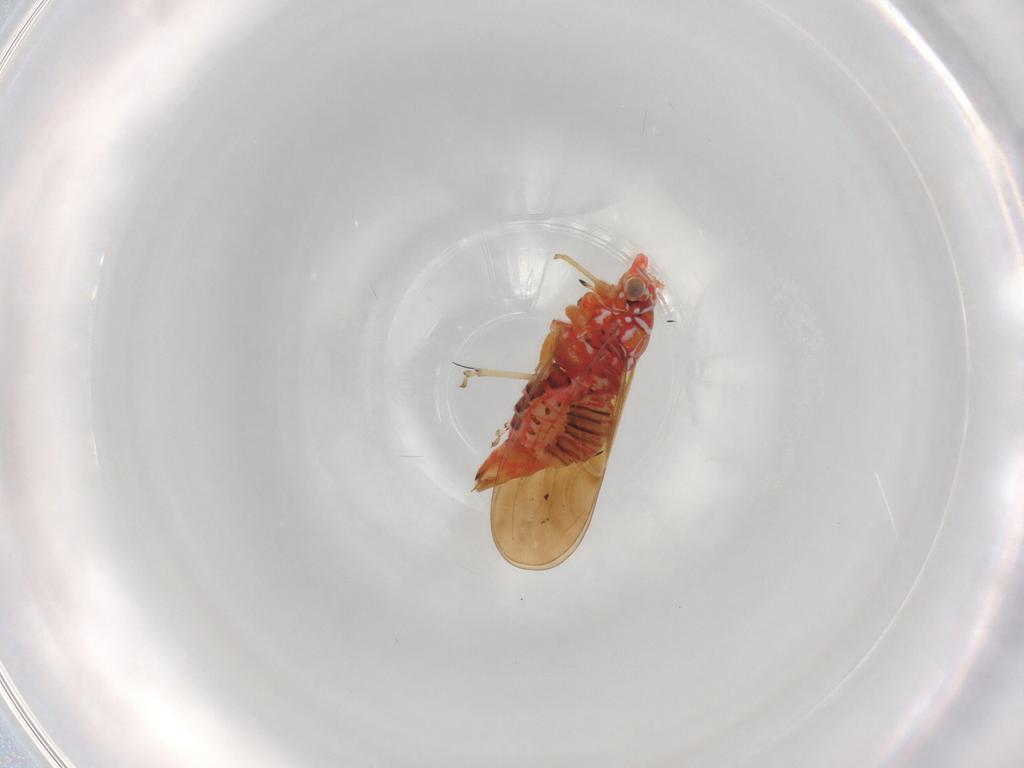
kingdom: Animalia
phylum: Arthropoda
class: Insecta
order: Hemiptera
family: Psyllidae
